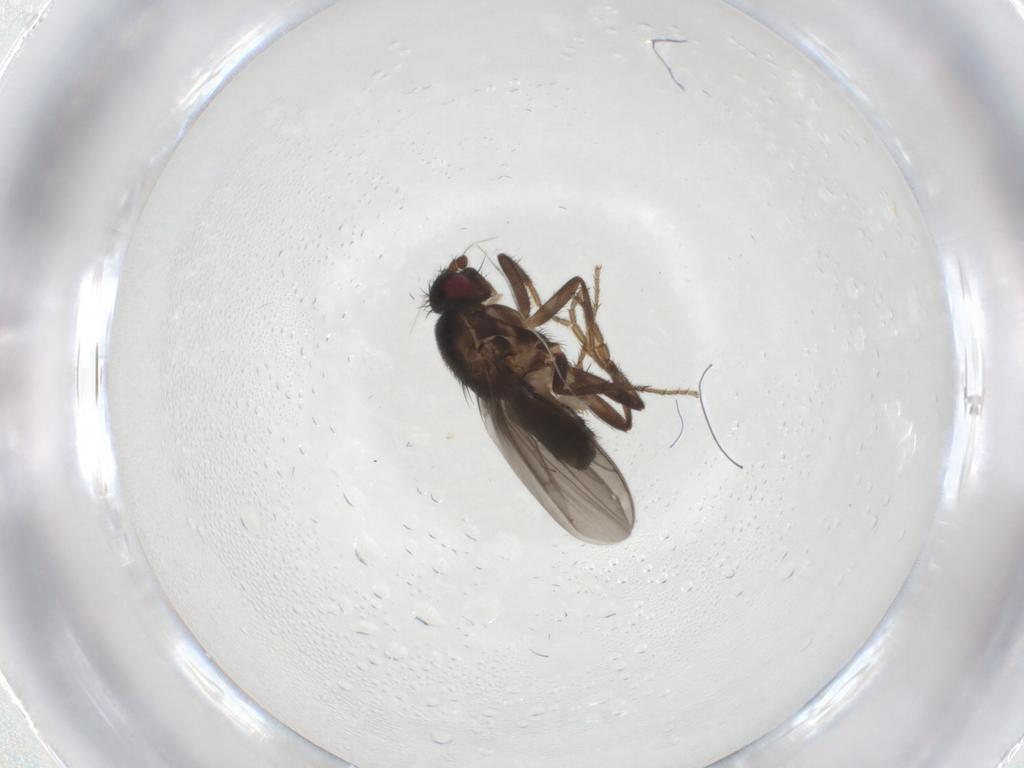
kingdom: Animalia
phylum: Arthropoda
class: Insecta
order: Diptera
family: Sphaeroceridae
